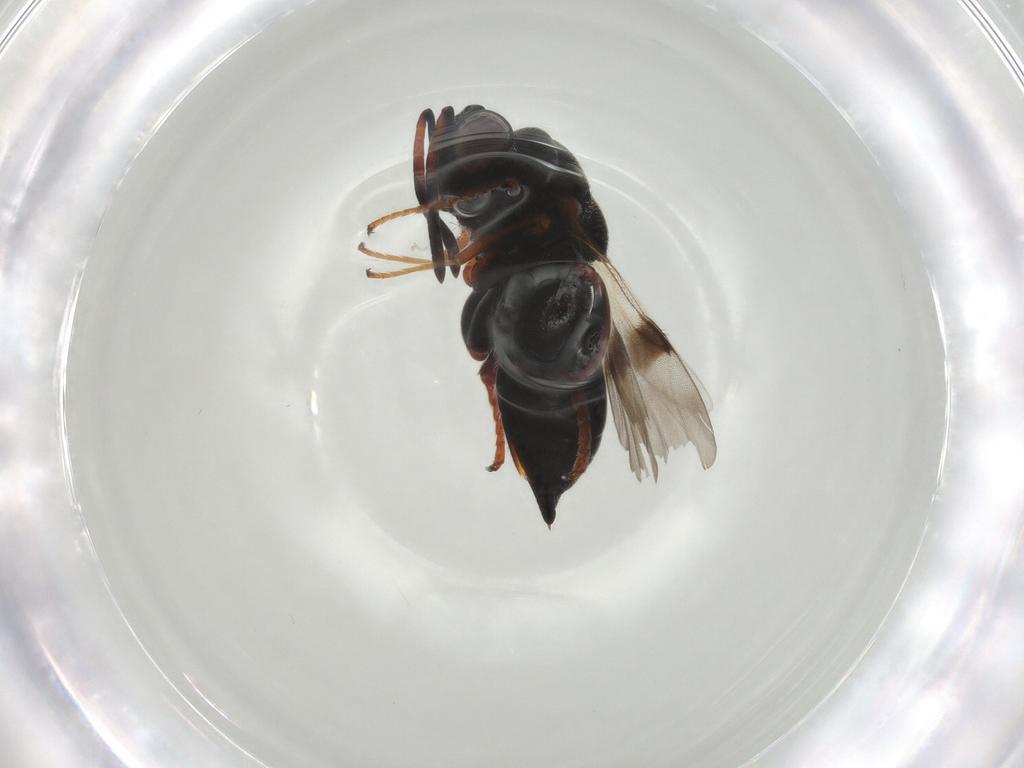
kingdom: Animalia
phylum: Arthropoda
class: Insecta
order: Hymenoptera
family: Chalcididae
